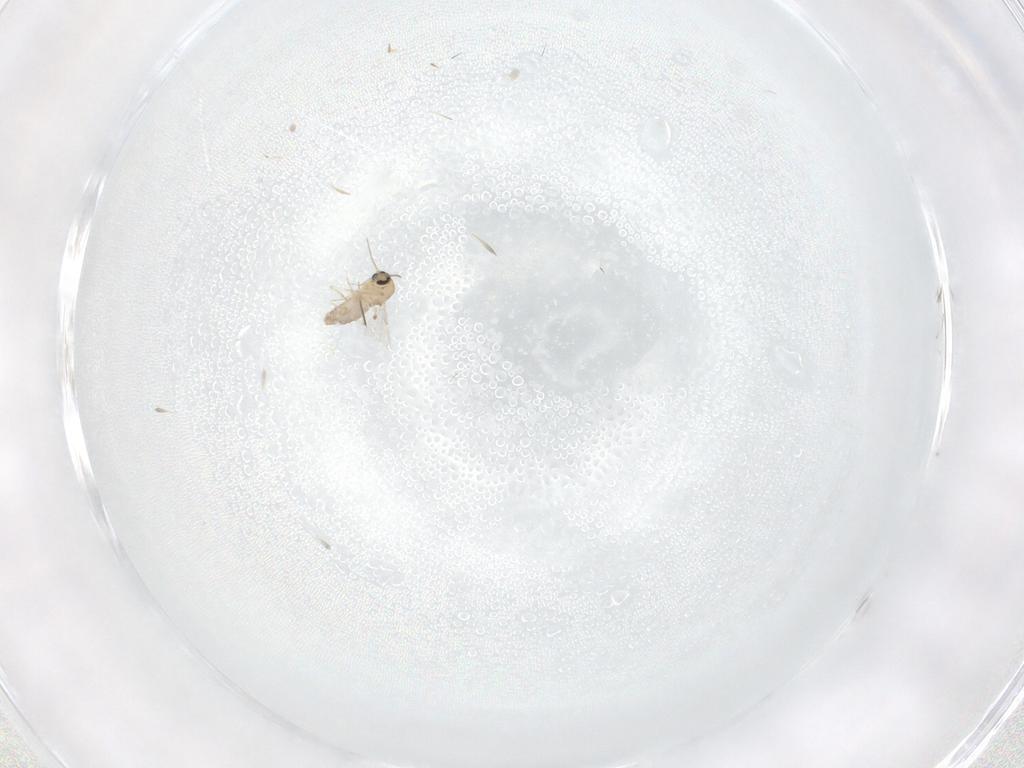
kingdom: Animalia
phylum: Arthropoda
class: Insecta
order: Diptera
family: Ceratopogonidae
